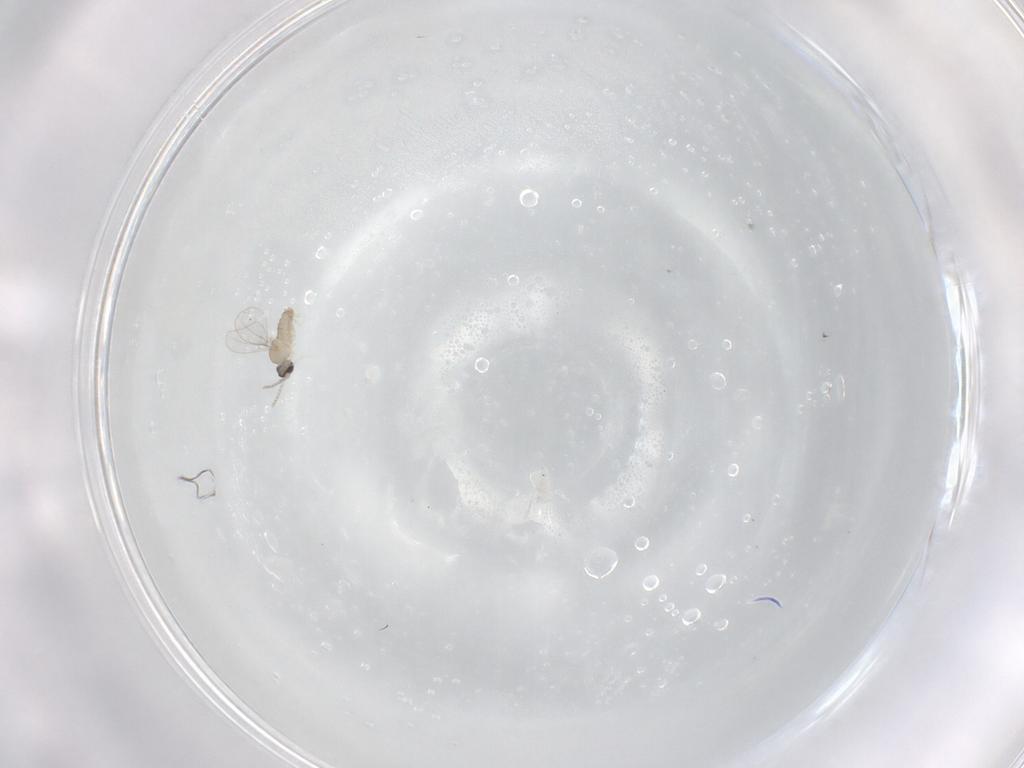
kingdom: Animalia
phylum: Arthropoda
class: Insecta
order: Diptera
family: Cecidomyiidae
